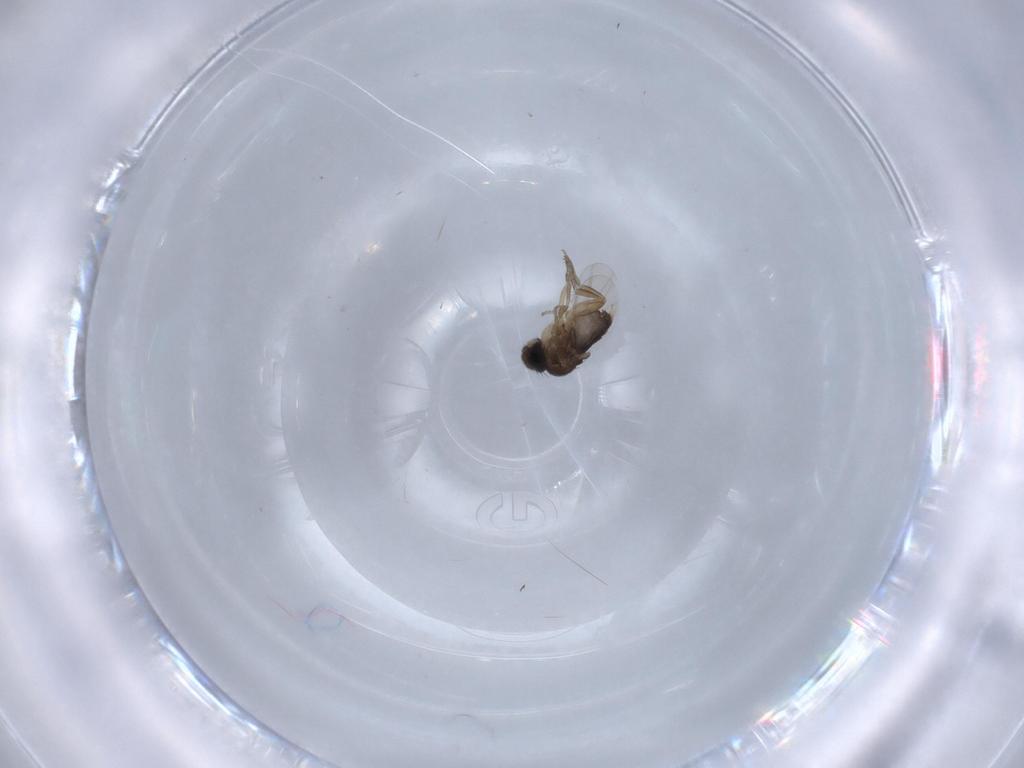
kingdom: Animalia
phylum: Arthropoda
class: Insecta
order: Diptera
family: Phoridae
